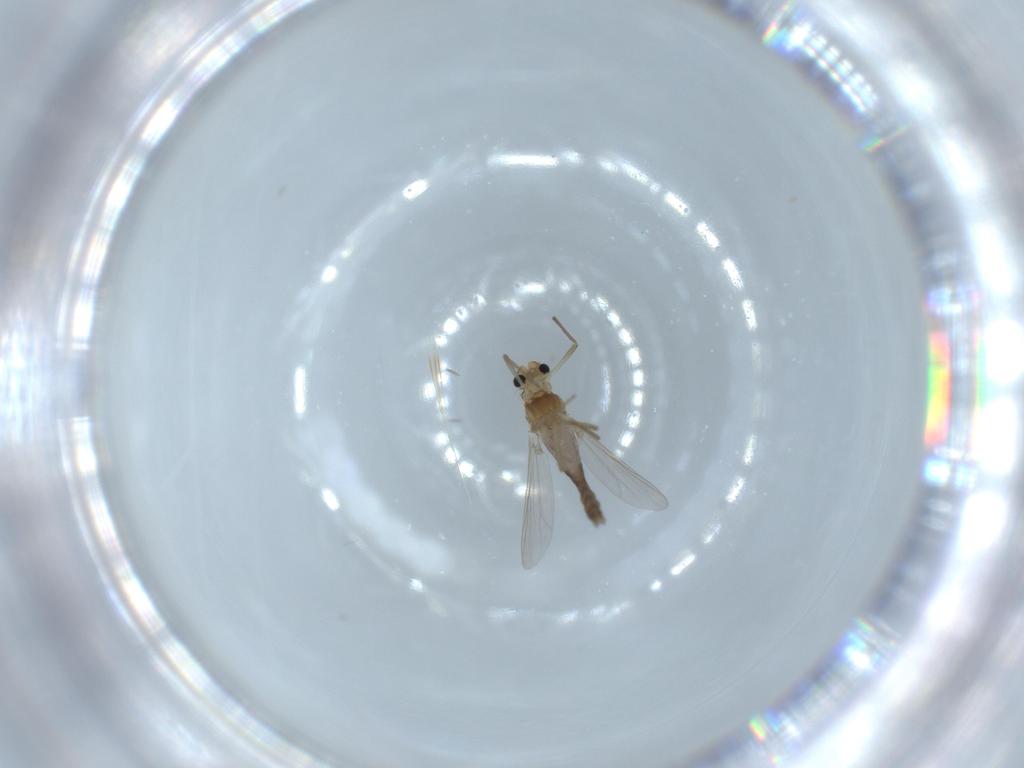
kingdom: Animalia
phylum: Arthropoda
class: Insecta
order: Diptera
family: Chironomidae
